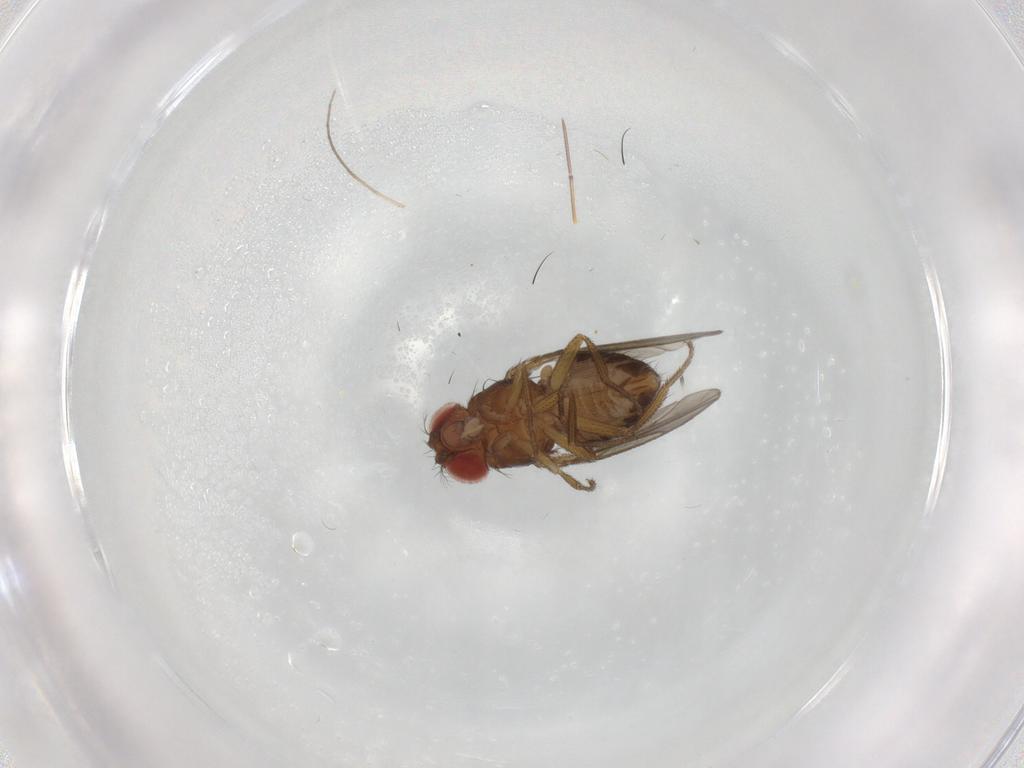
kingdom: Animalia
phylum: Arthropoda
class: Insecta
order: Diptera
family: Drosophilidae
